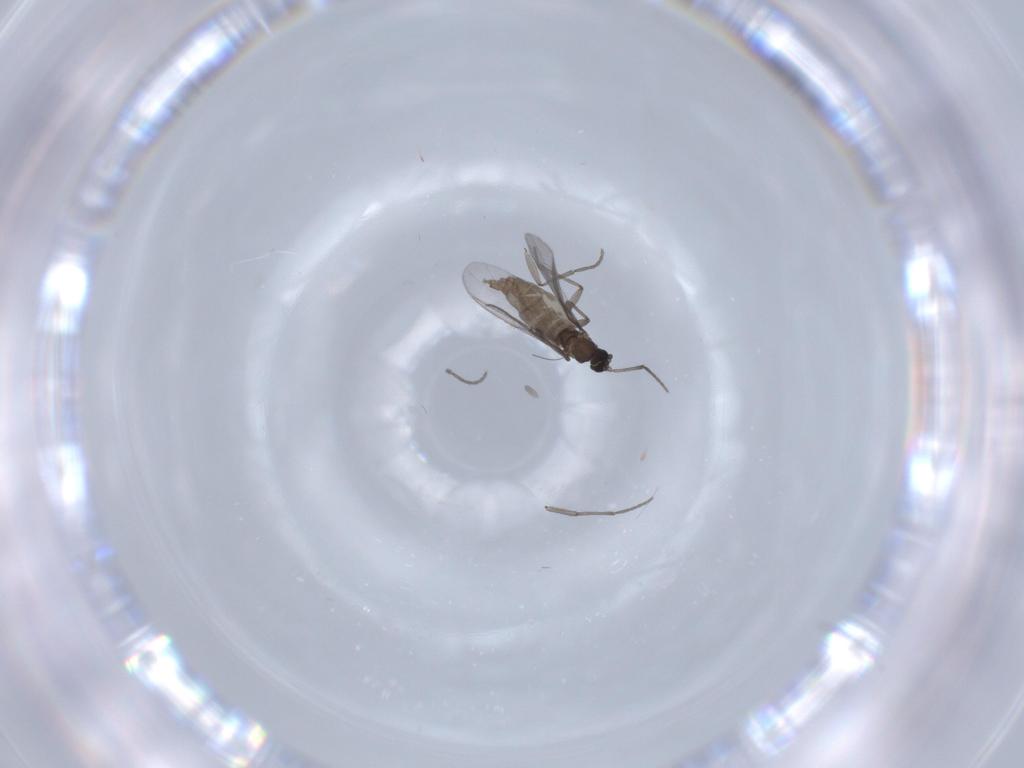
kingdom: Animalia
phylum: Arthropoda
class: Insecta
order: Diptera
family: Sciaridae
